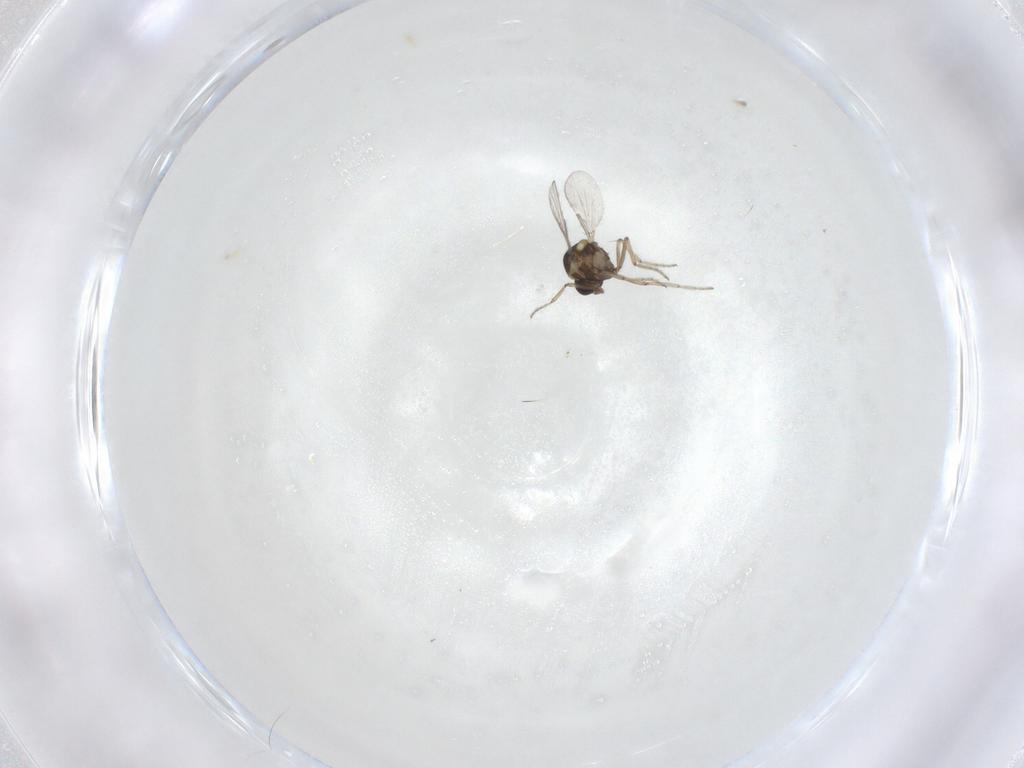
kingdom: Animalia
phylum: Arthropoda
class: Insecta
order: Diptera
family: Ceratopogonidae
